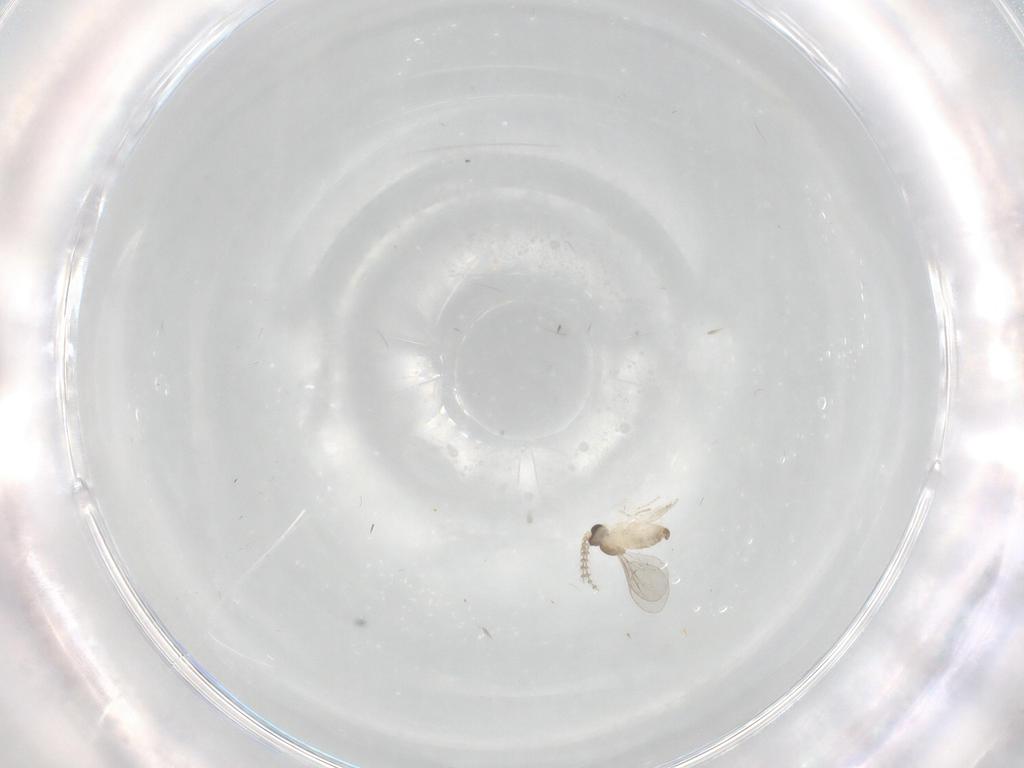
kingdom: Animalia
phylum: Arthropoda
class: Insecta
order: Diptera
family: Cecidomyiidae
